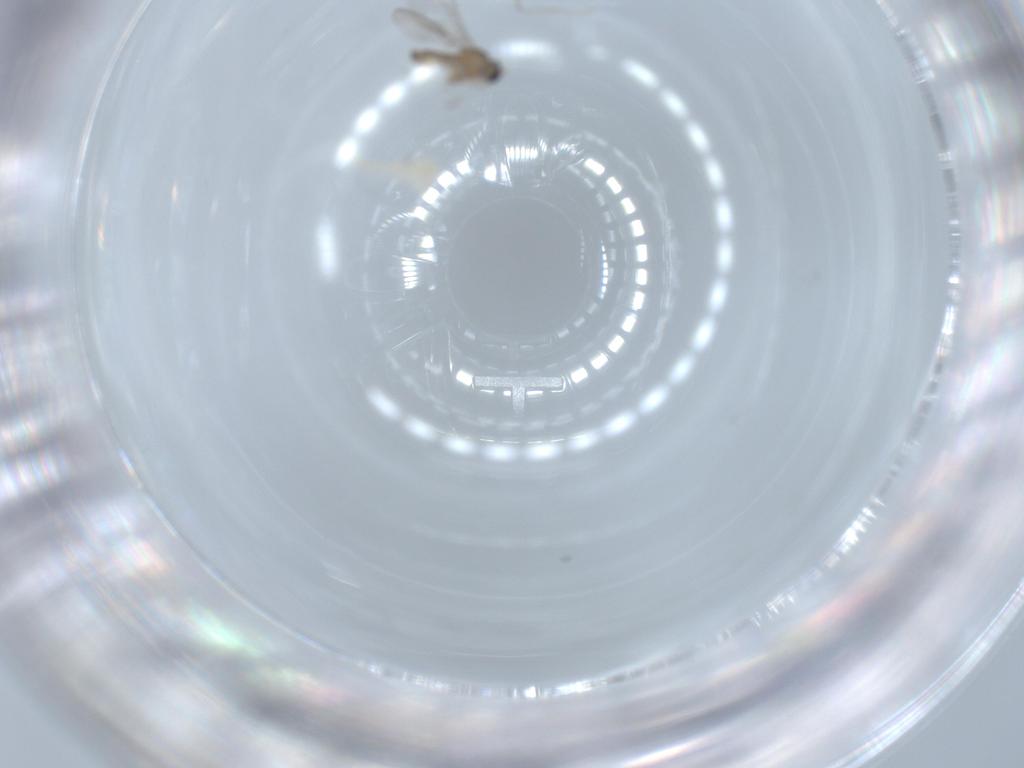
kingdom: Animalia
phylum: Arthropoda
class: Insecta
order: Diptera
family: Cecidomyiidae
